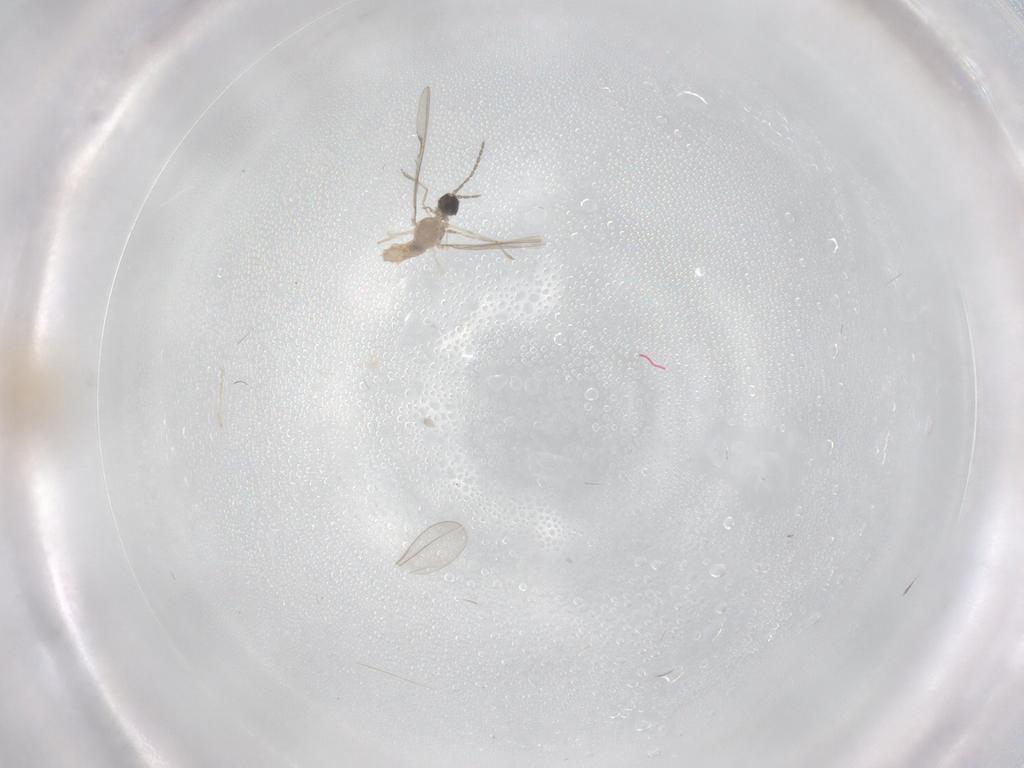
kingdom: Animalia
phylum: Arthropoda
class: Insecta
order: Diptera
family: Cecidomyiidae
